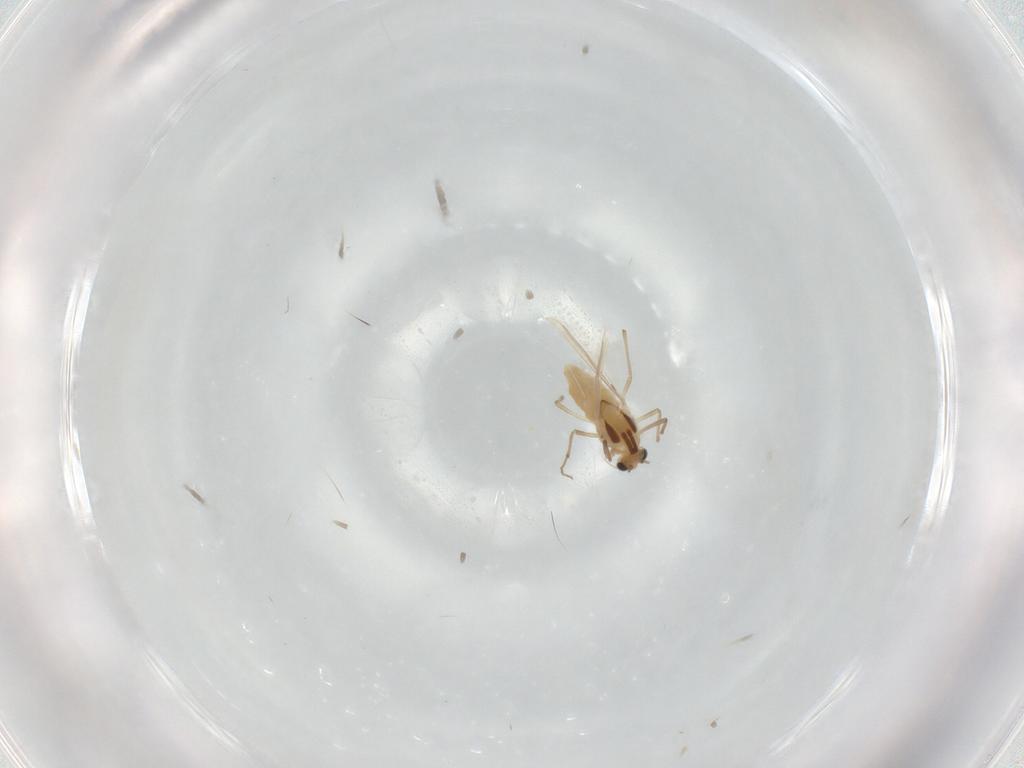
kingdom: Animalia
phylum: Arthropoda
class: Insecta
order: Diptera
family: Chironomidae
